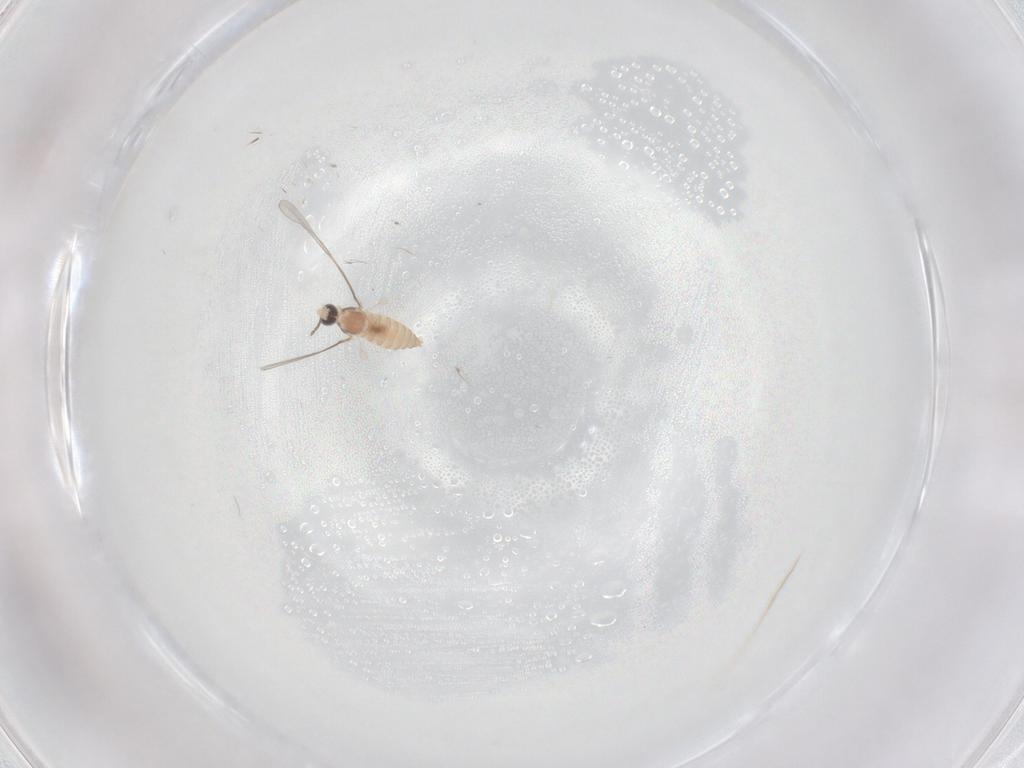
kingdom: Animalia
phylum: Arthropoda
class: Insecta
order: Diptera
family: Cecidomyiidae
